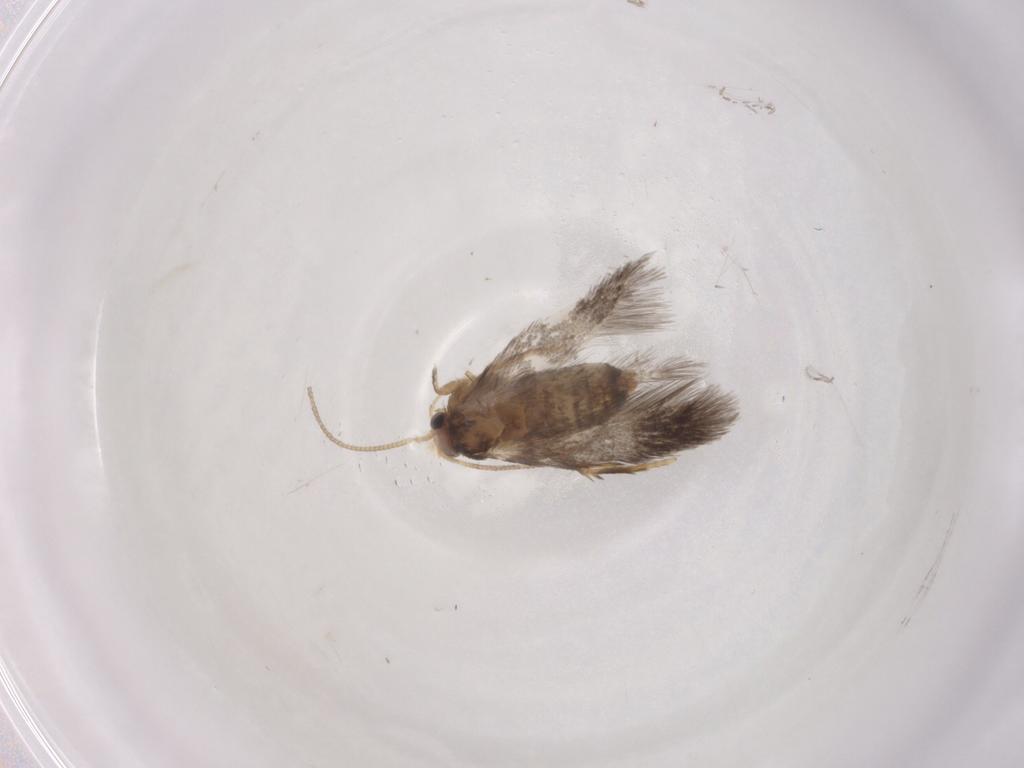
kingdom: Animalia
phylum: Arthropoda
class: Insecta
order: Lepidoptera
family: Nepticulidae
